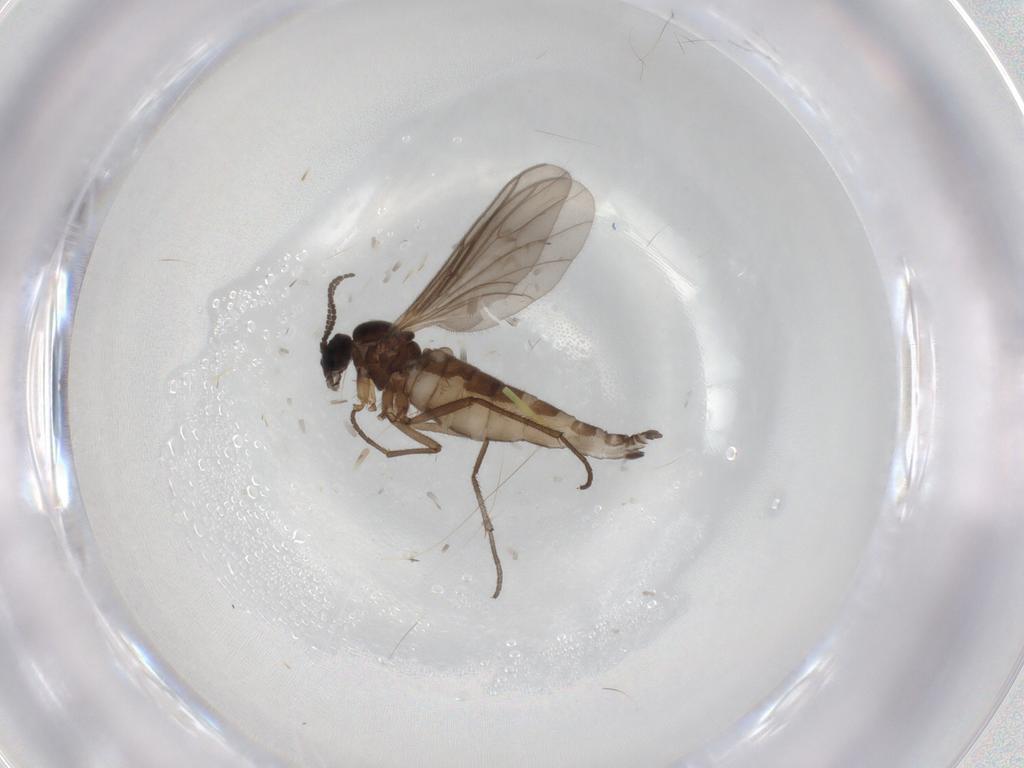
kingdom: Animalia
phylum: Arthropoda
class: Insecta
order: Diptera
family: Sciaridae
